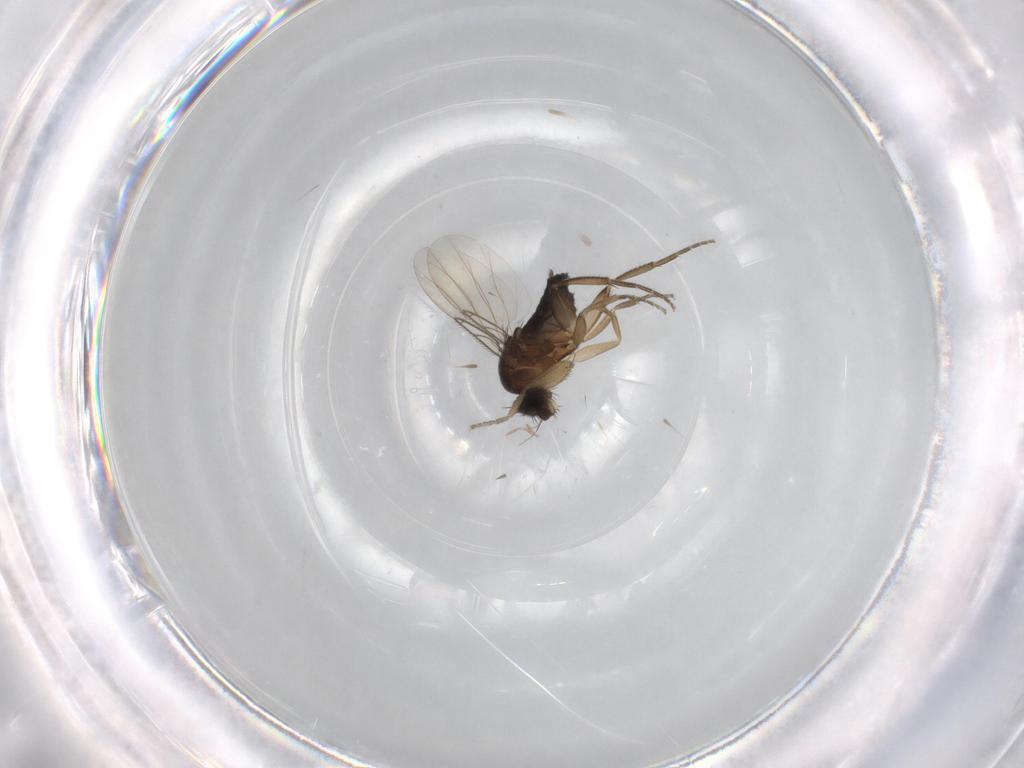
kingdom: Animalia
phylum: Arthropoda
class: Insecta
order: Diptera
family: Phoridae
